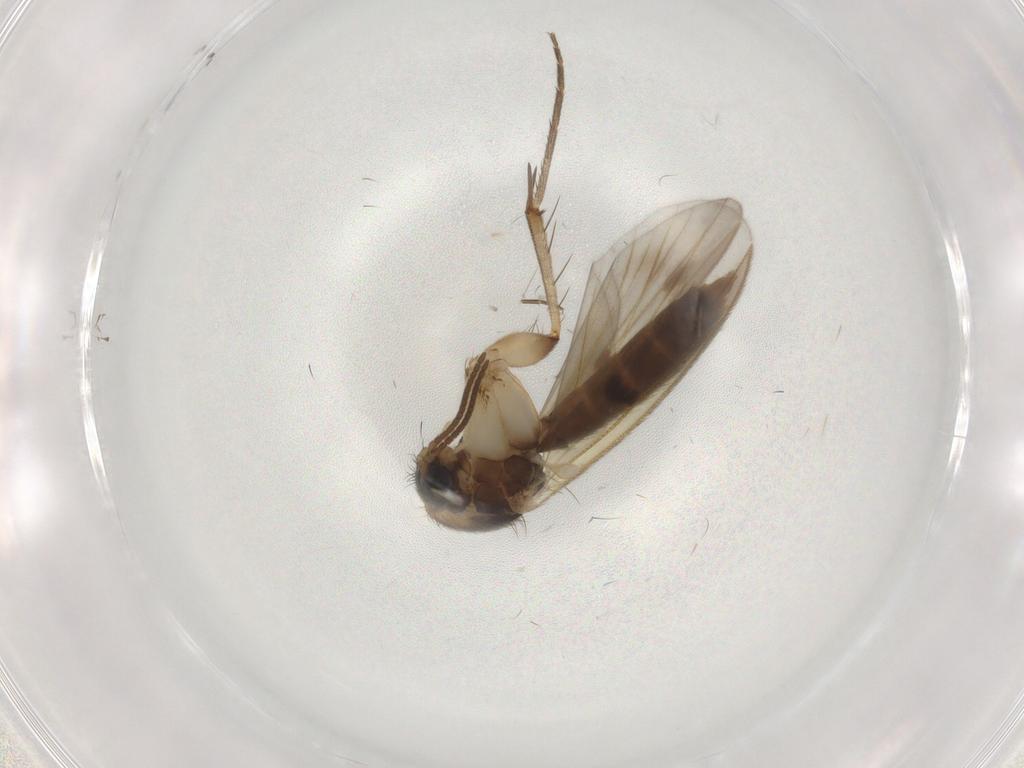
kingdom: Animalia
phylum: Arthropoda
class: Insecta
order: Diptera
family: Mycetophilidae
